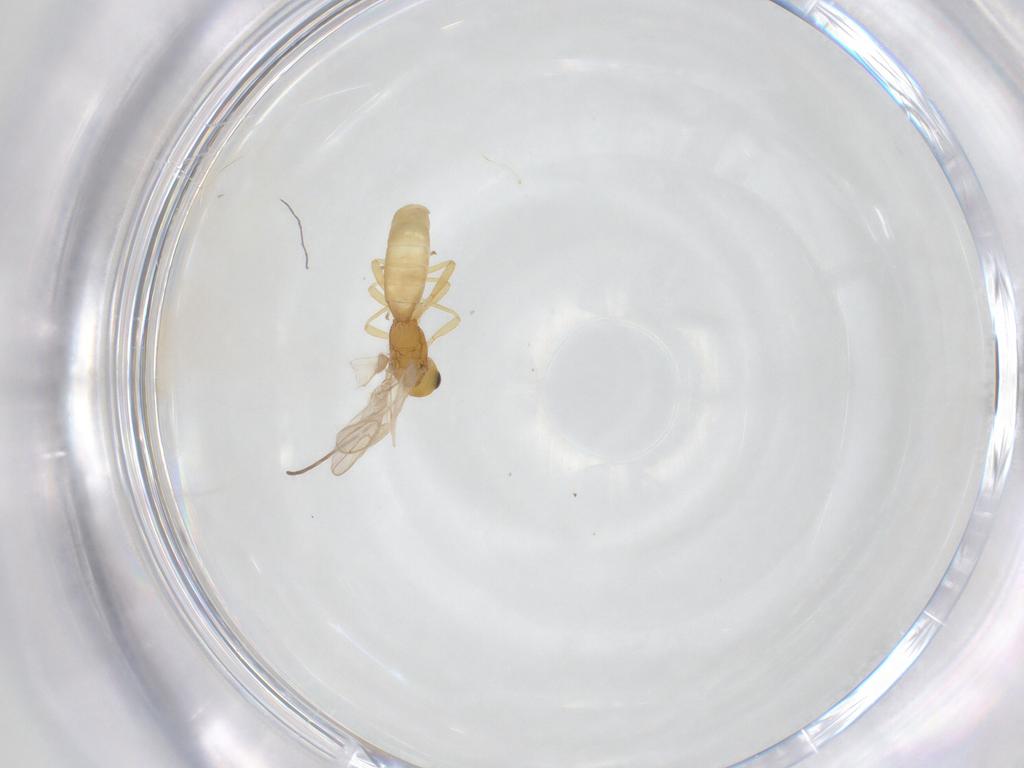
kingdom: Animalia
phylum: Arthropoda
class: Insecta
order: Hymenoptera
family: Braconidae
